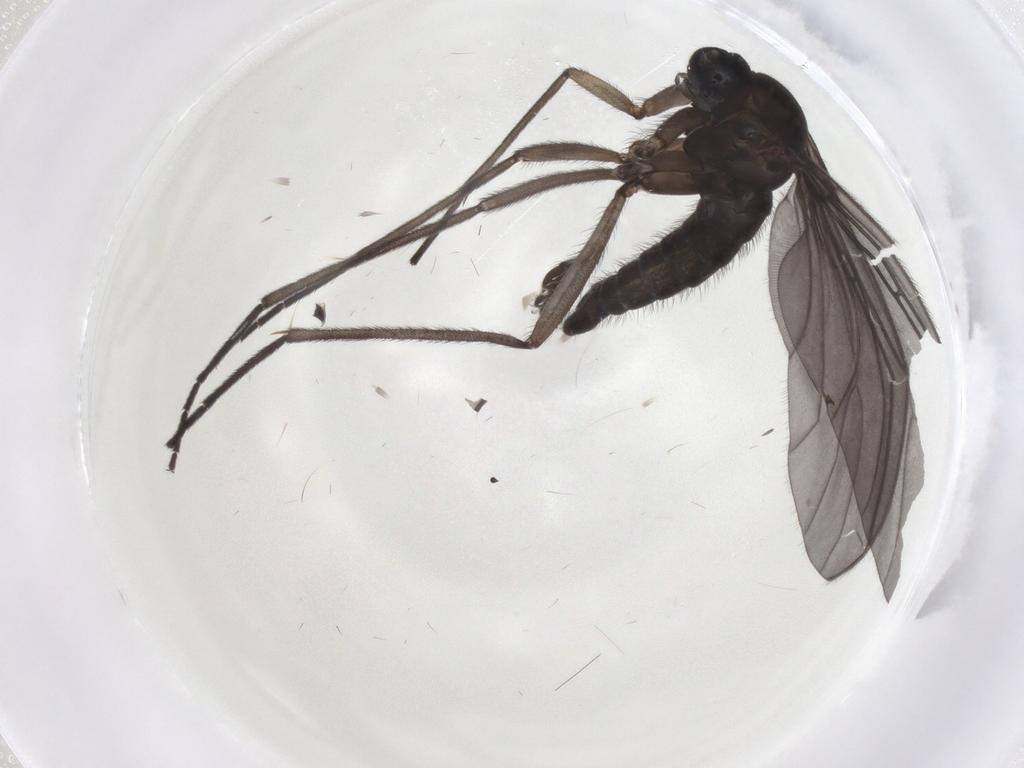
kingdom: Animalia
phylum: Arthropoda
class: Insecta
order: Diptera
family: Sciaridae
